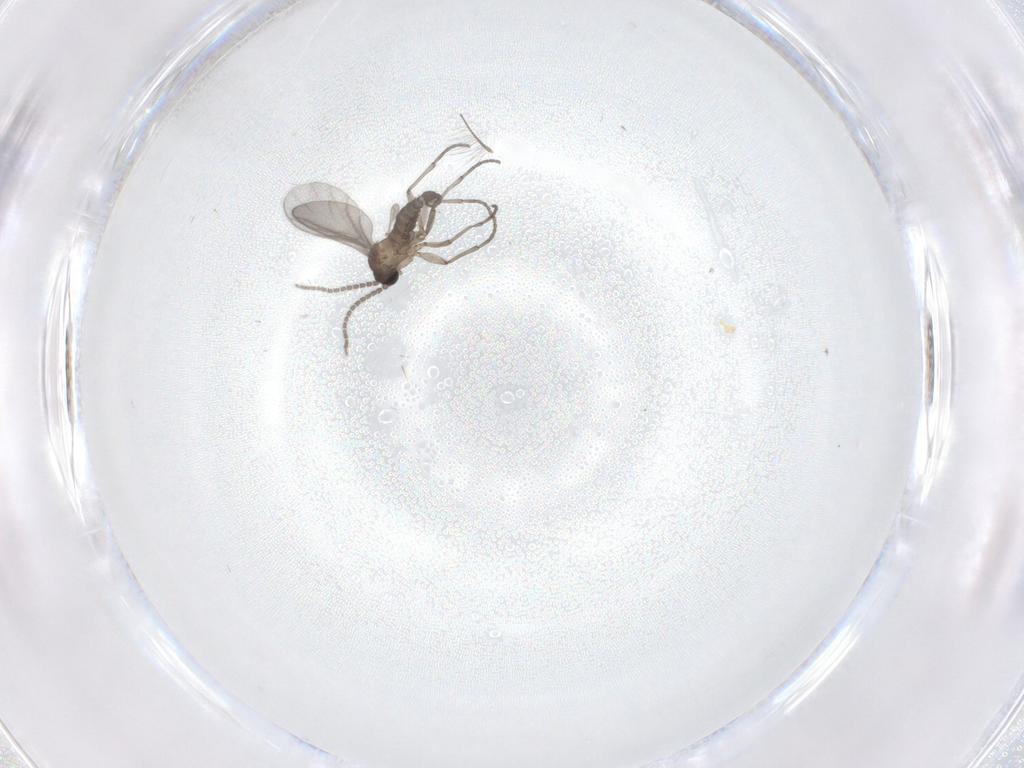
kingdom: Animalia
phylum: Arthropoda
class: Insecta
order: Diptera
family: Sciaridae
